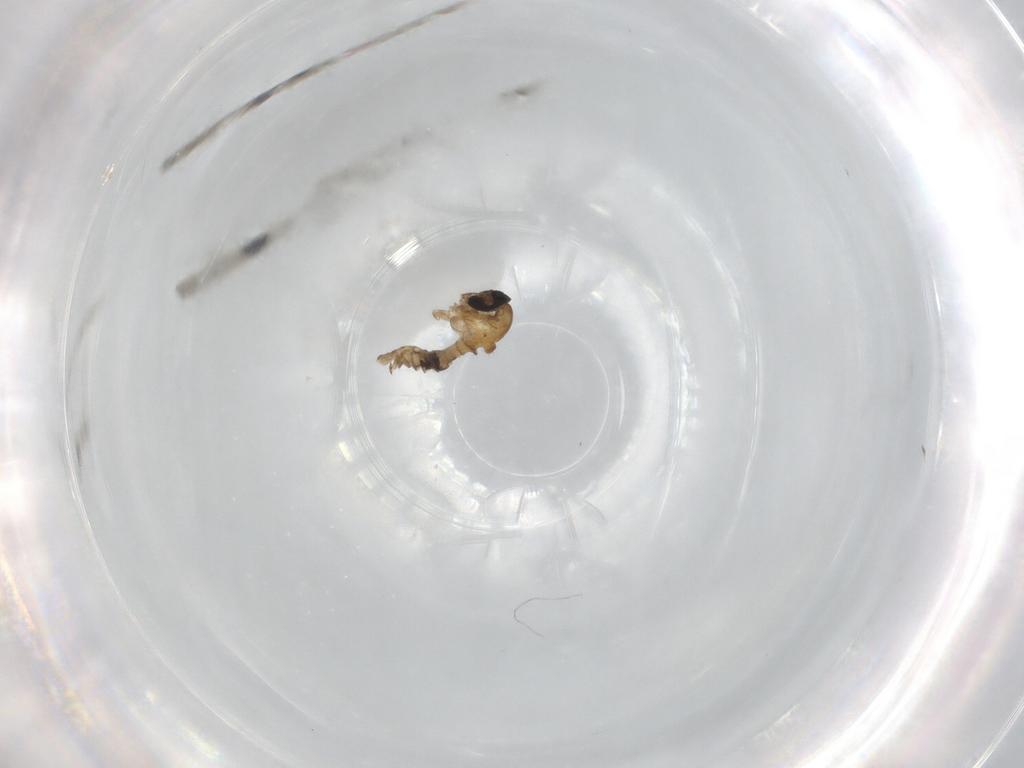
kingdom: Animalia
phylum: Arthropoda
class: Insecta
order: Diptera
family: Psychodidae
